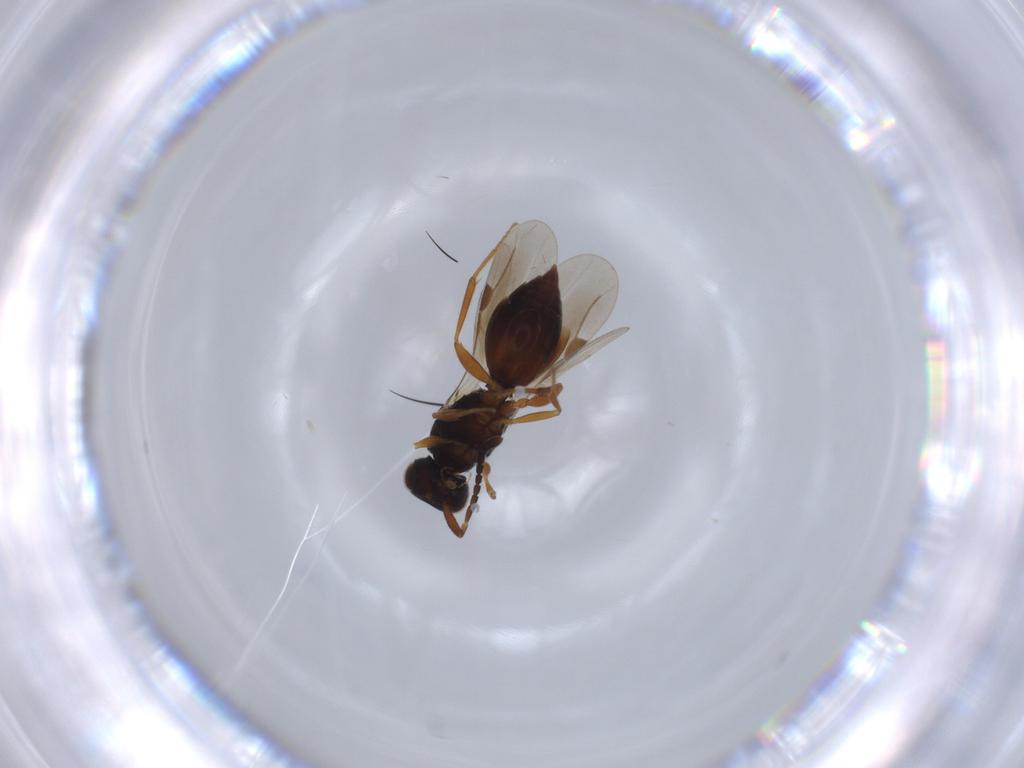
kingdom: Animalia
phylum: Arthropoda
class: Insecta
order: Hymenoptera
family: Megaspilidae
